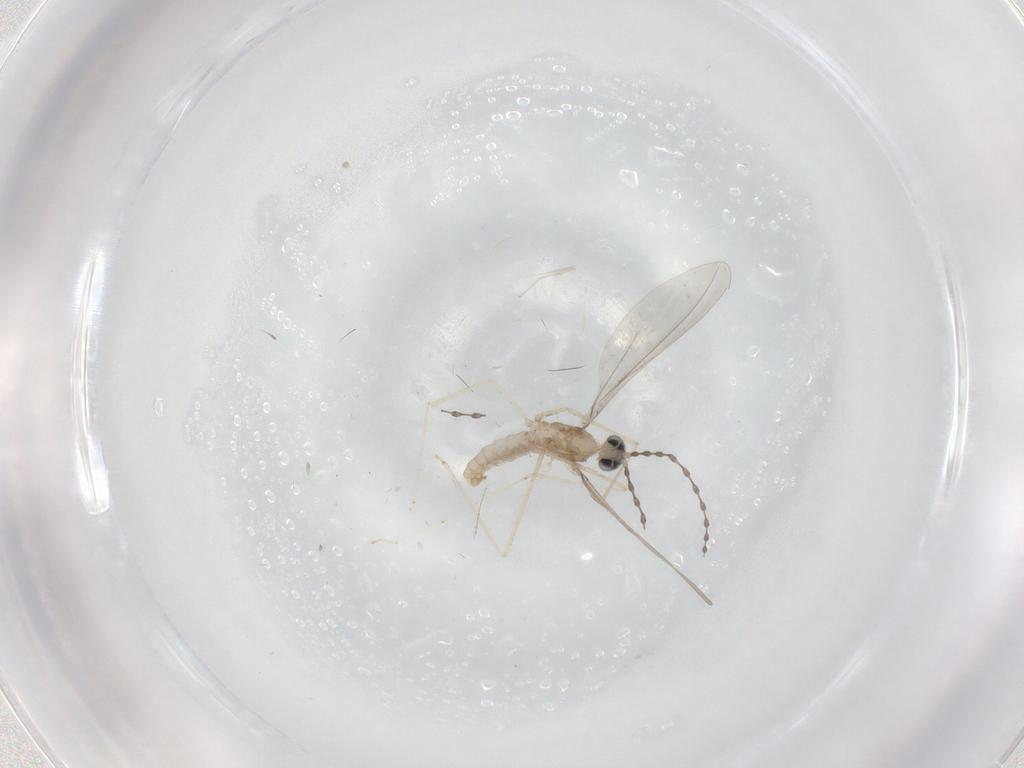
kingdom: Animalia
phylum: Arthropoda
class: Insecta
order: Diptera
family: Cecidomyiidae
